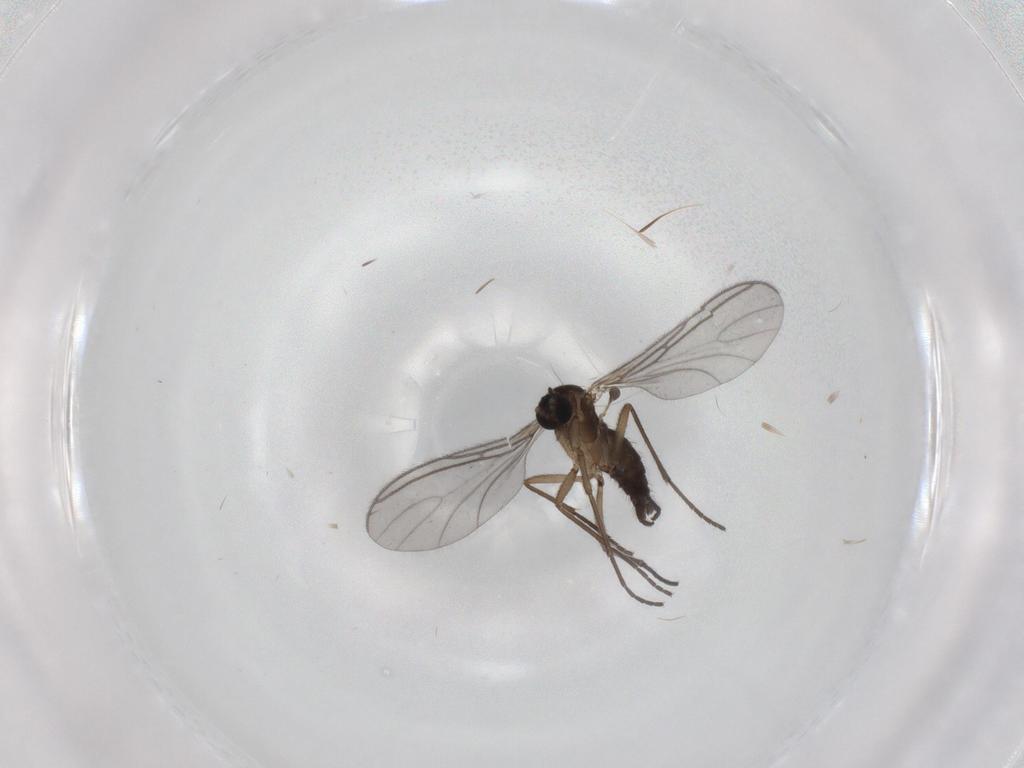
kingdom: Animalia
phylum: Arthropoda
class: Insecta
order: Diptera
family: Sciaridae
